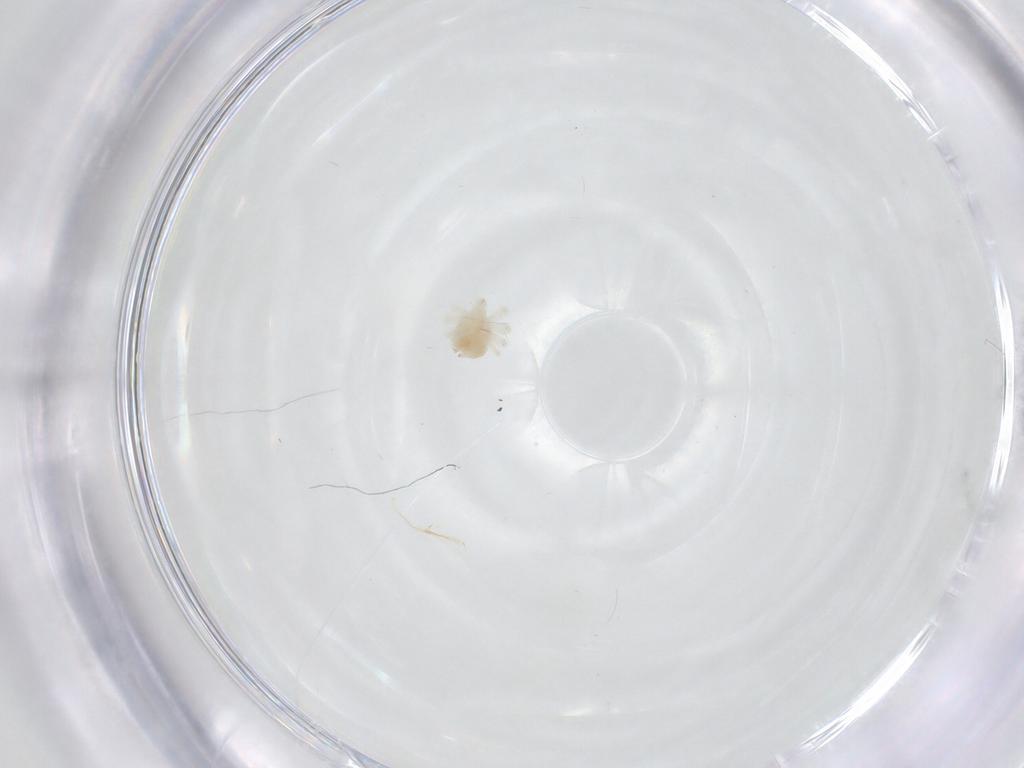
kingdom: Animalia
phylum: Arthropoda
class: Arachnida
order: Trombidiformes
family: Anystidae
